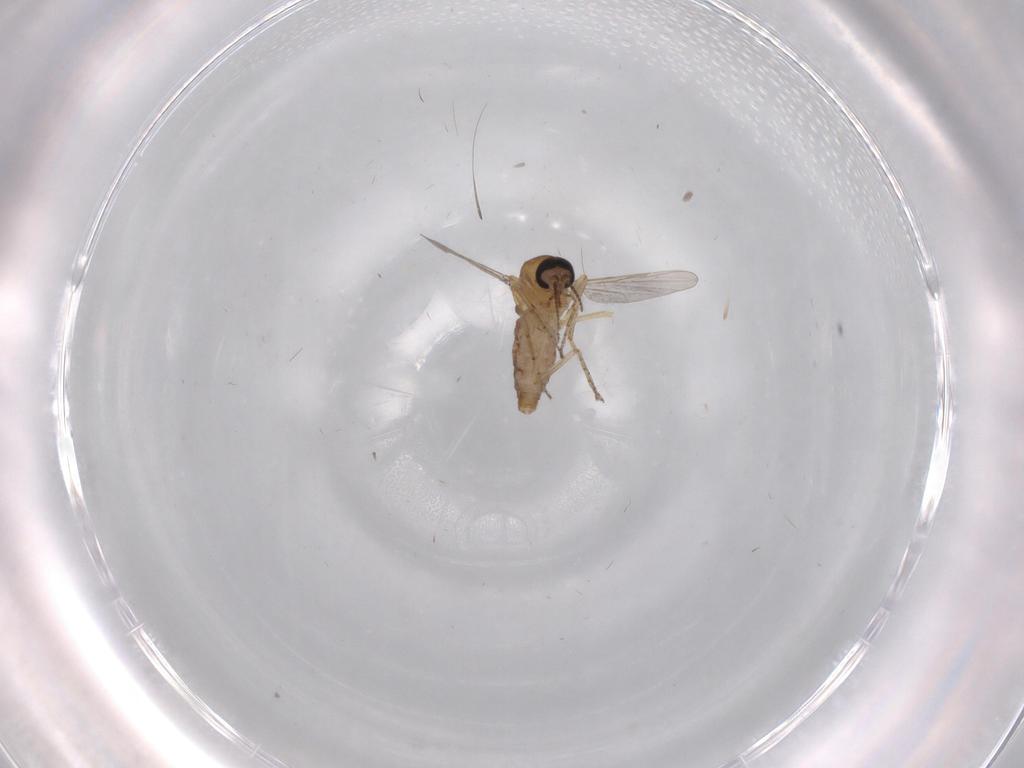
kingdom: Animalia
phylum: Arthropoda
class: Insecta
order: Diptera
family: Ceratopogonidae
